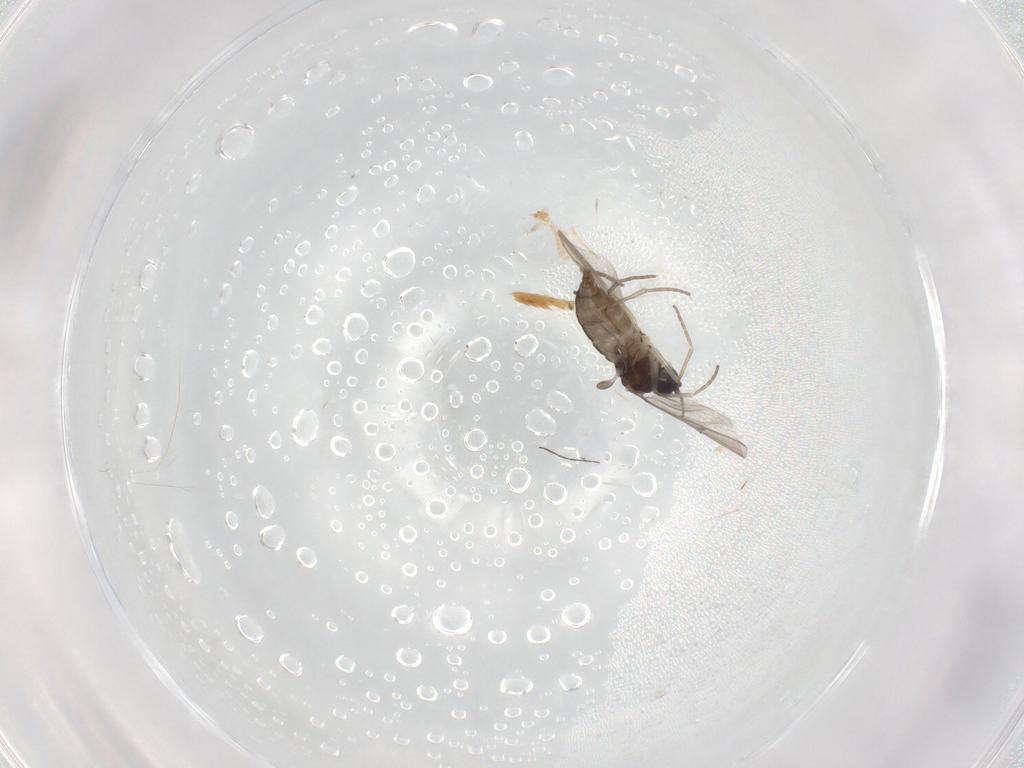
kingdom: Animalia
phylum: Arthropoda
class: Insecta
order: Diptera
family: Sciaridae
